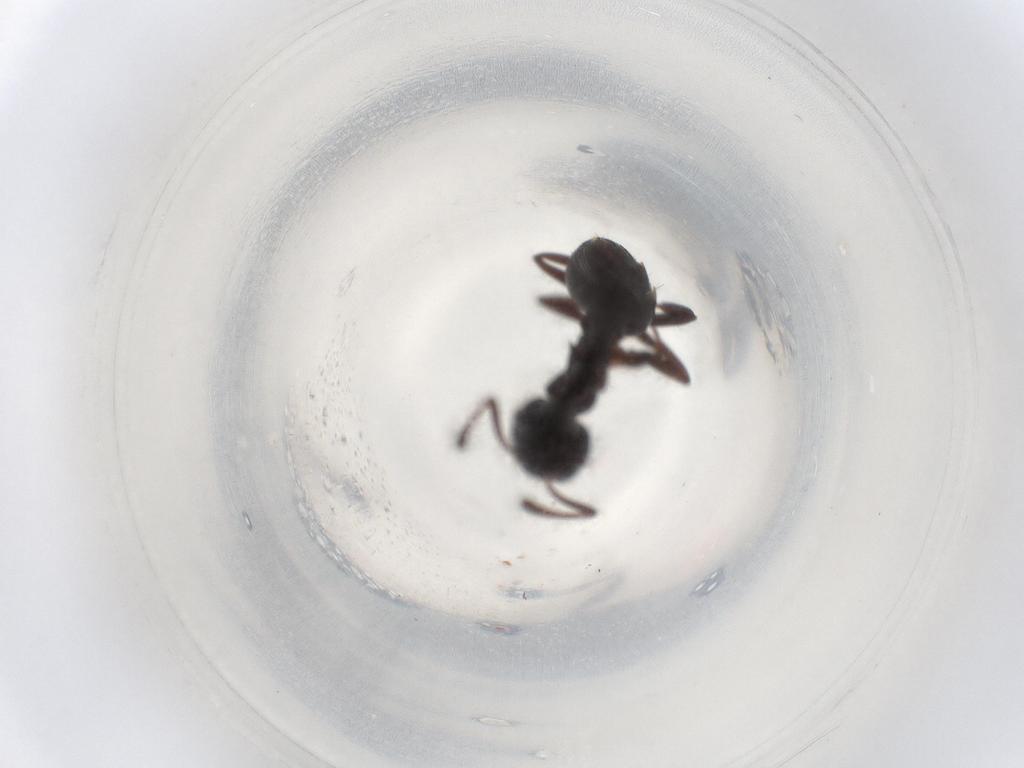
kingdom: Animalia
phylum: Arthropoda
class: Insecta
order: Hymenoptera
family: Formicidae
